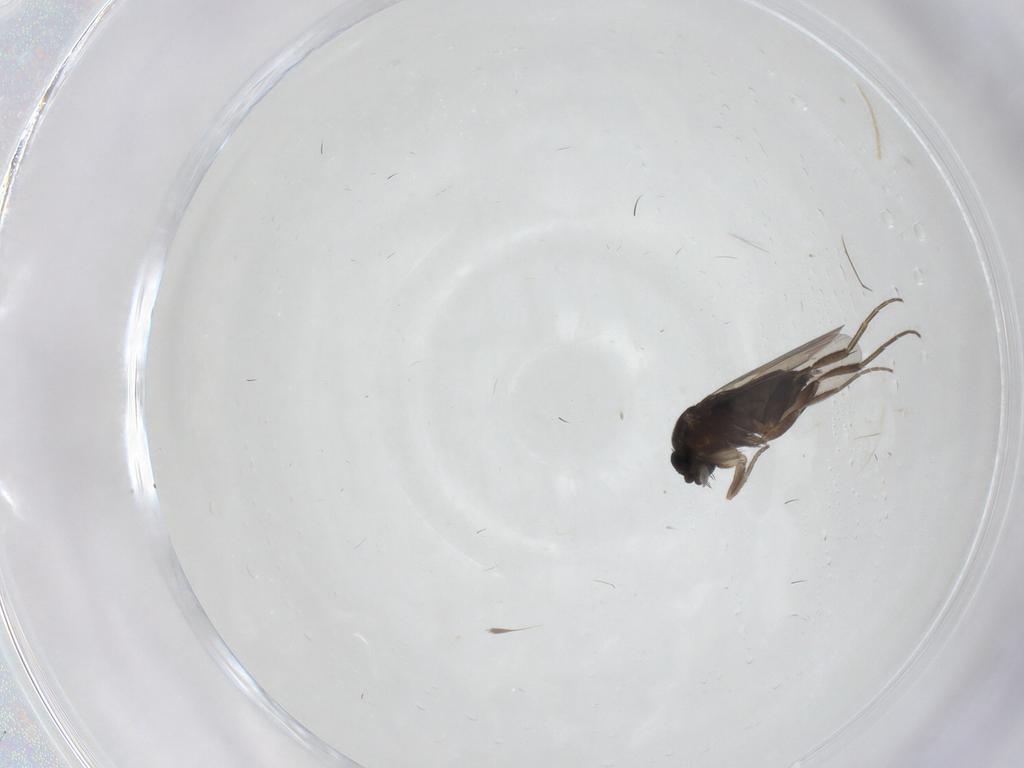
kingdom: Animalia
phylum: Arthropoda
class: Insecta
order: Diptera
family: Phoridae
